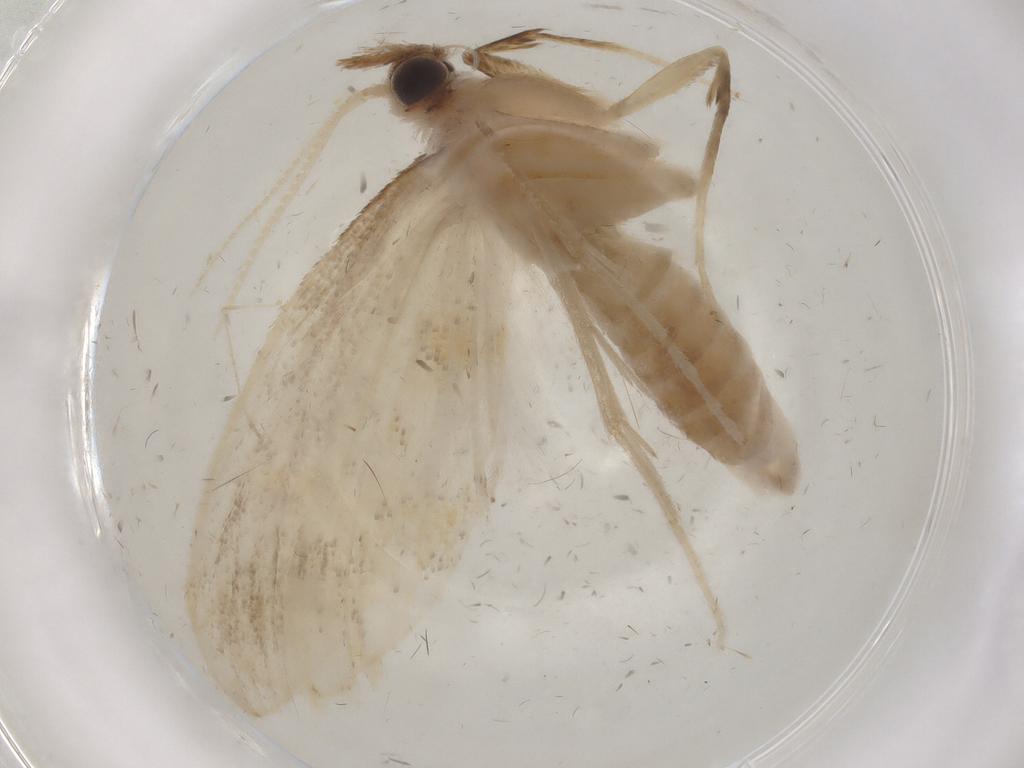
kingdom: Animalia
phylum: Arthropoda
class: Insecta
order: Lepidoptera
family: Crambidae
